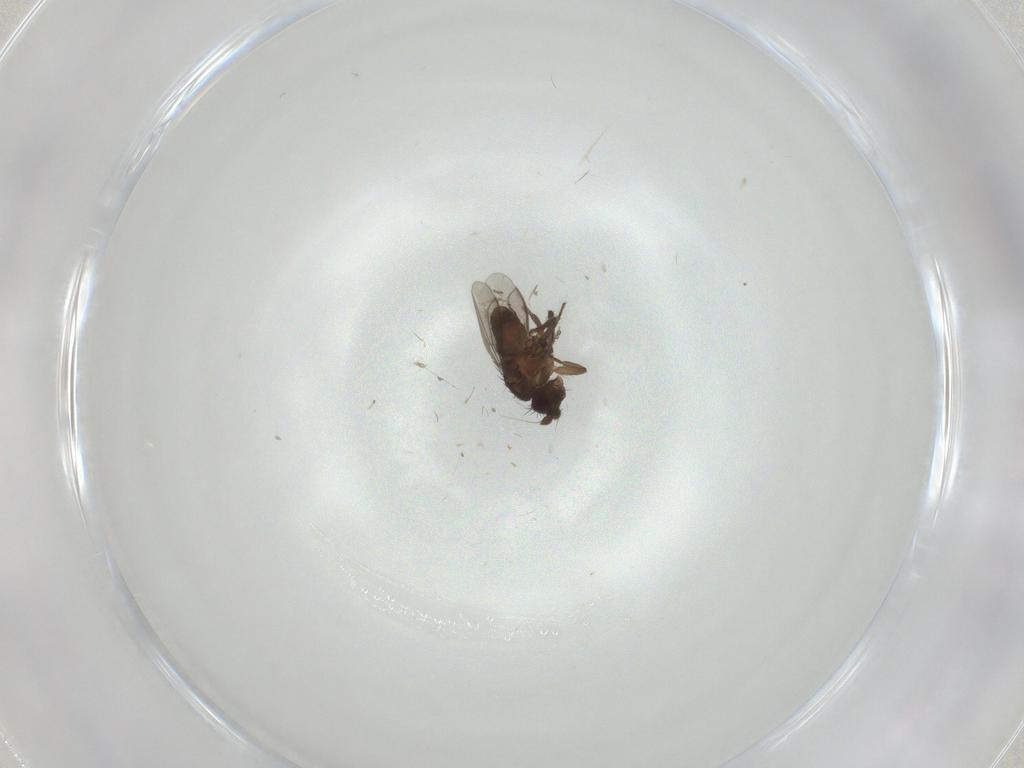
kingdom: Animalia
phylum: Arthropoda
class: Insecta
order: Diptera
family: Sphaeroceridae
